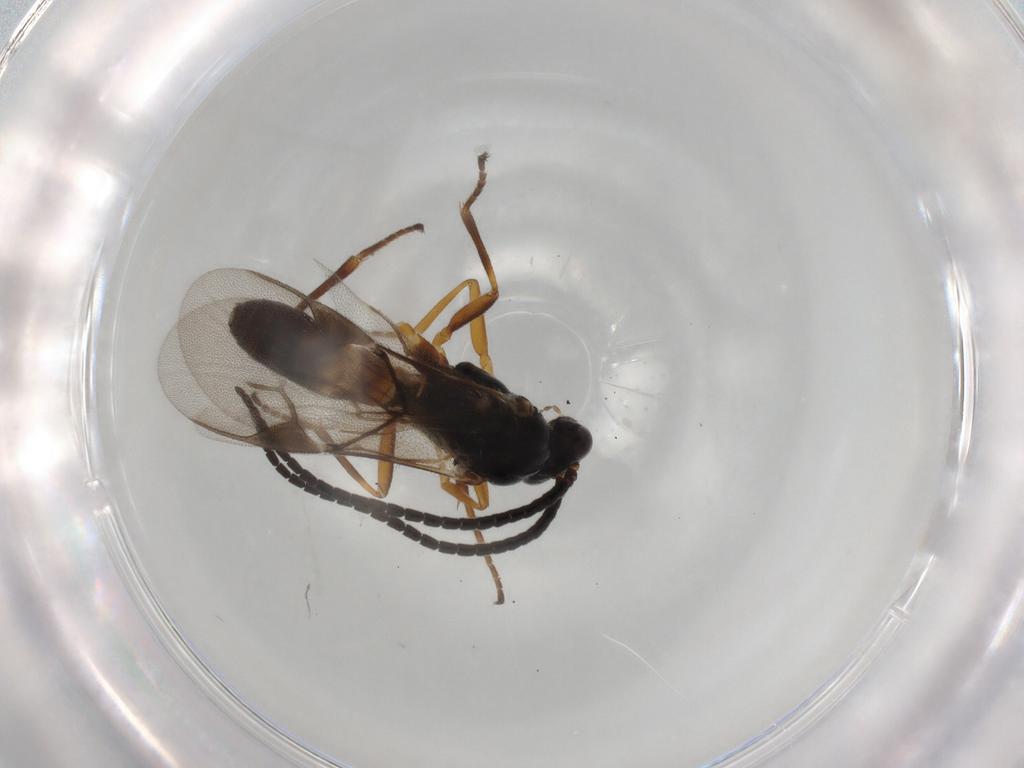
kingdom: Animalia
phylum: Arthropoda
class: Insecta
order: Hymenoptera
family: Braconidae
